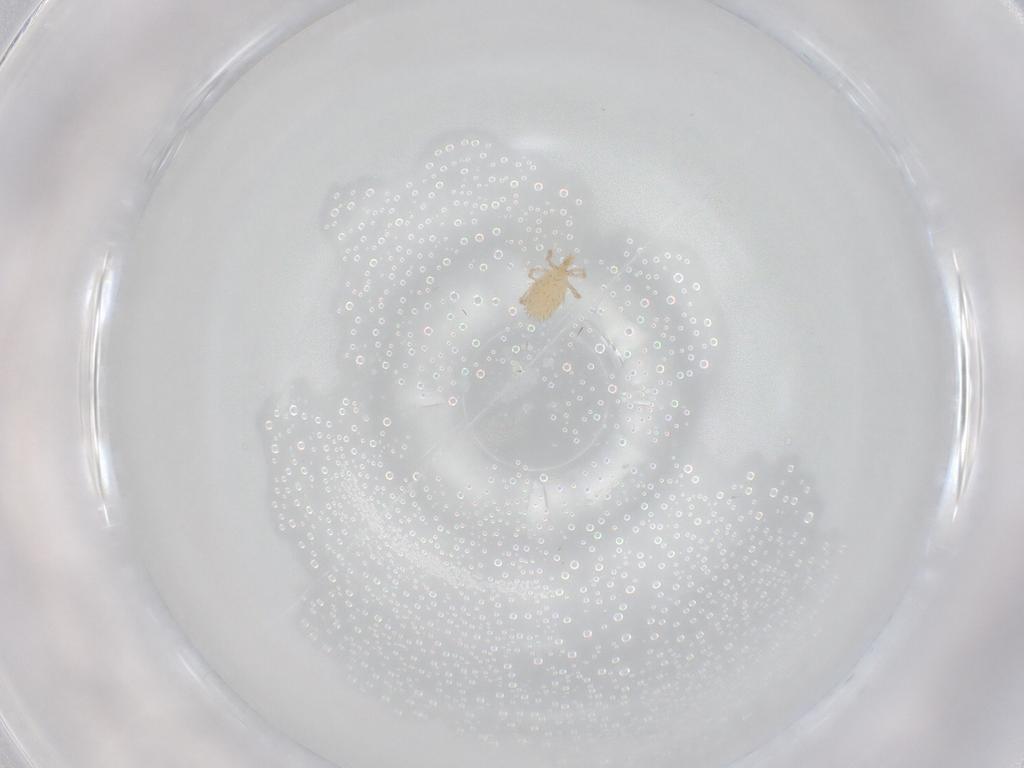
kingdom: Animalia
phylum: Arthropoda
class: Arachnida
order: Trombidiformes
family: Erythraeidae
